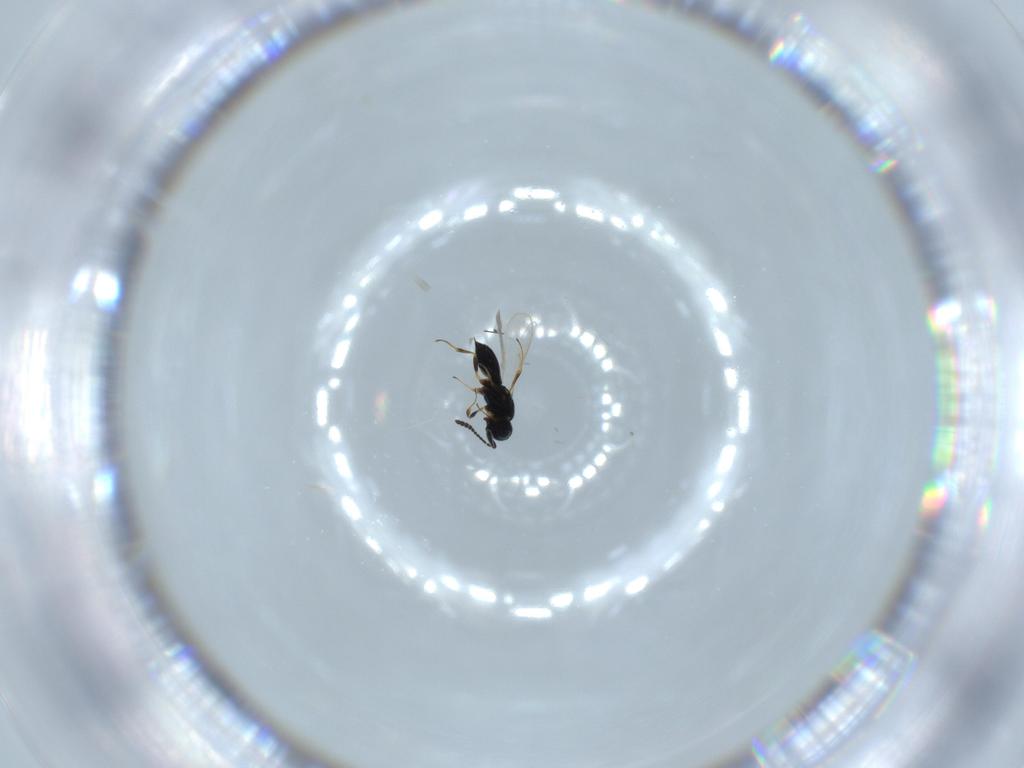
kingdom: Animalia
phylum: Arthropoda
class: Insecta
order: Hymenoptera
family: Scelionidae
